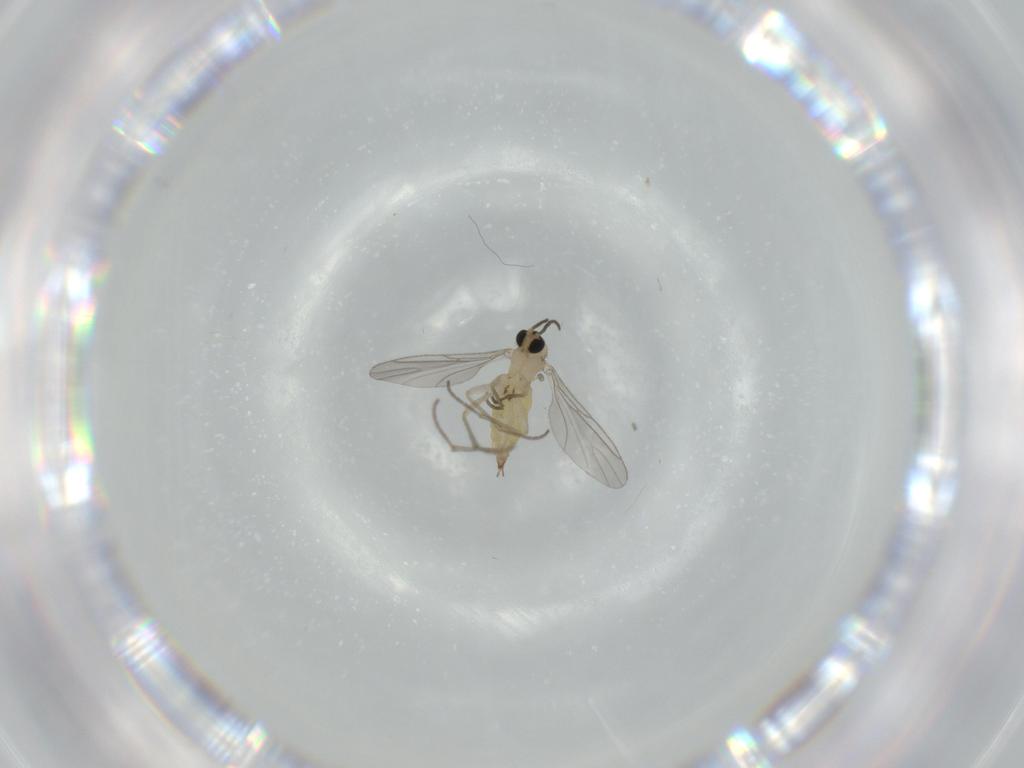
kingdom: Animalia
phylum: Arthropoda
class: Insecta
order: Diptera
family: Sciaridae
